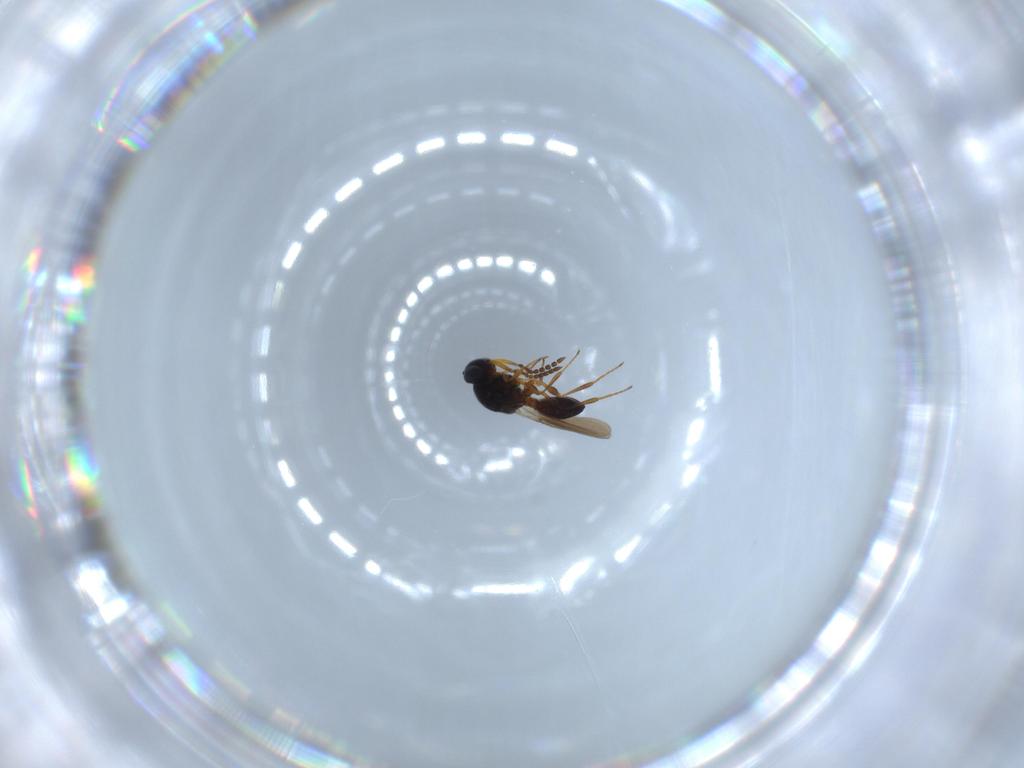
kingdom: Animalia
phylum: Arthropoda
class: Insecta
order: Hymenoptera
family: Platygastridae
